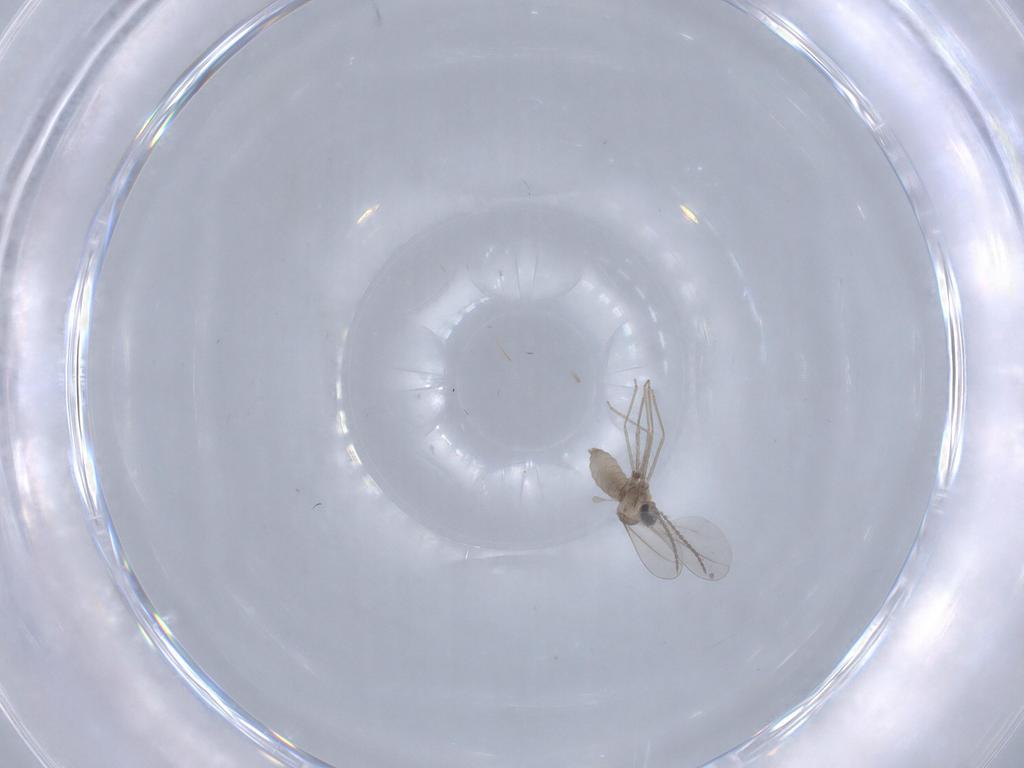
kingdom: Animalia
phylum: Arthropoda
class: Insecta
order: Diptera
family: Cecidomyiidae
